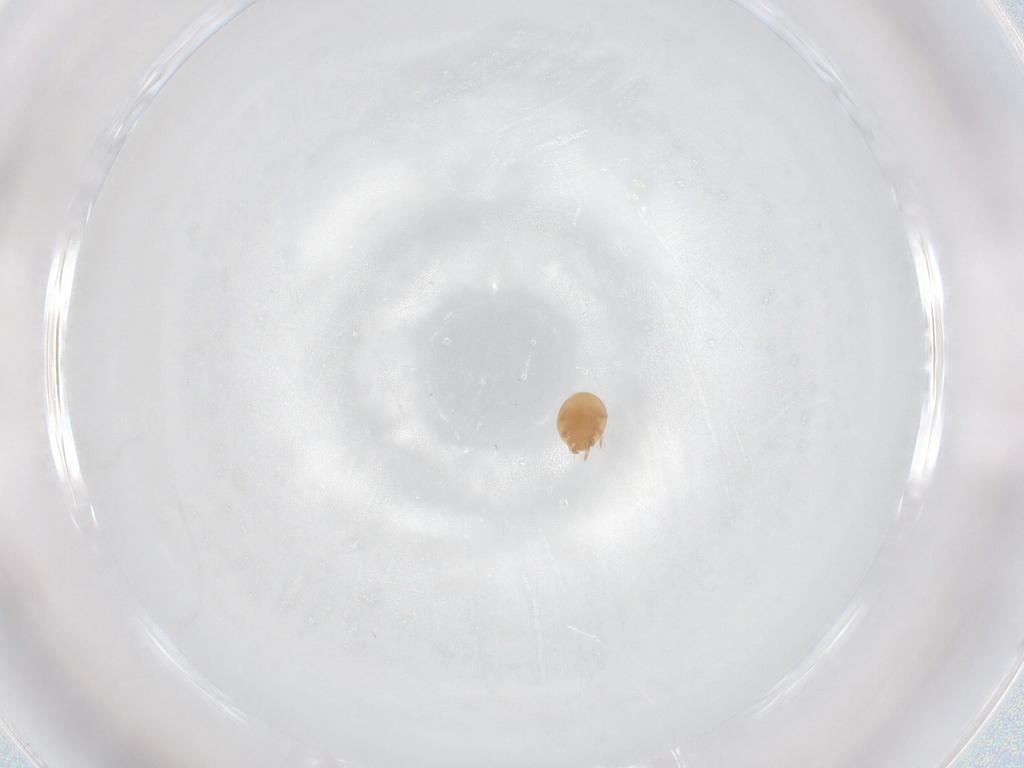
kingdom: Animalia
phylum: Arthropoda
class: Arachnida
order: Mesostigmata
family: Trematuridae
